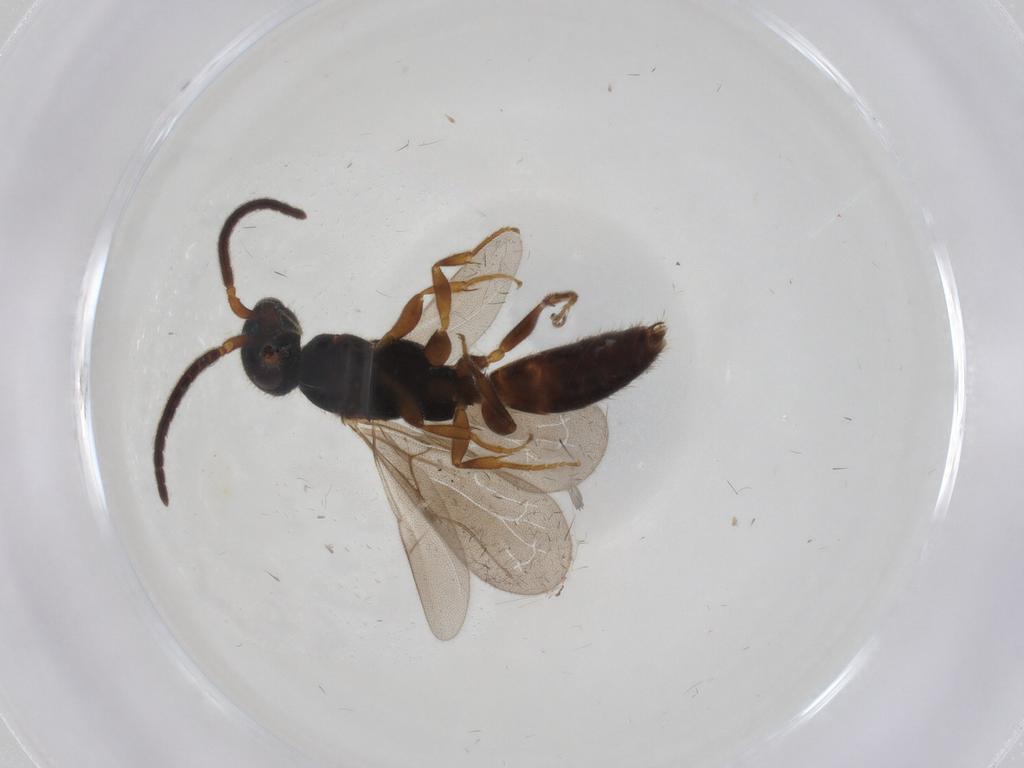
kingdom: Animalia
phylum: Arthropoda
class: Insecta
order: Hymenoptera
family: Bethylidae
